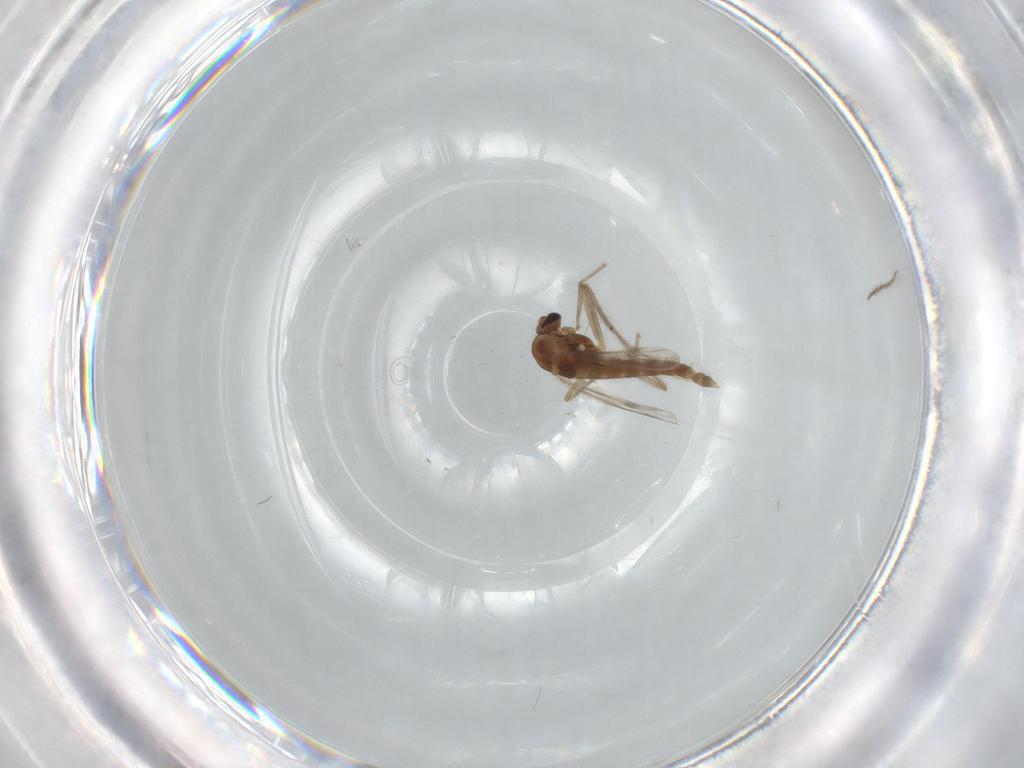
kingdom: Animalia
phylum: Arthropoda
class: Insecta
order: Diptera
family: Chironomidae
